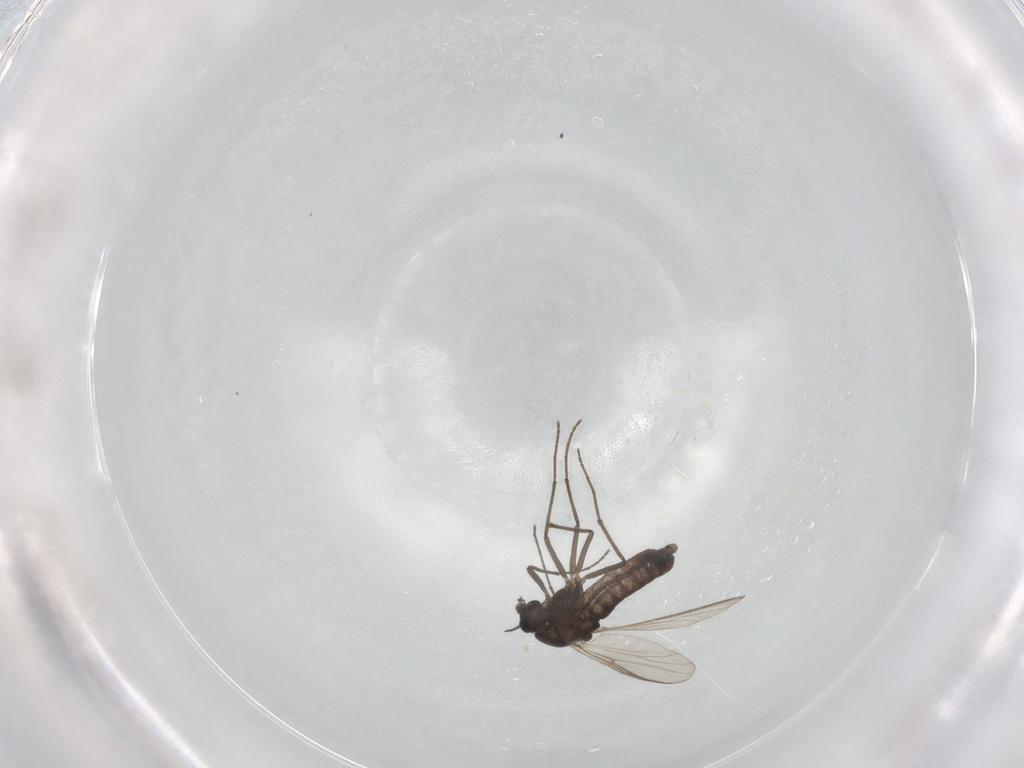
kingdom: Animalia
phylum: Arthropoda
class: Insecta
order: Diptera
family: Chironomidae
